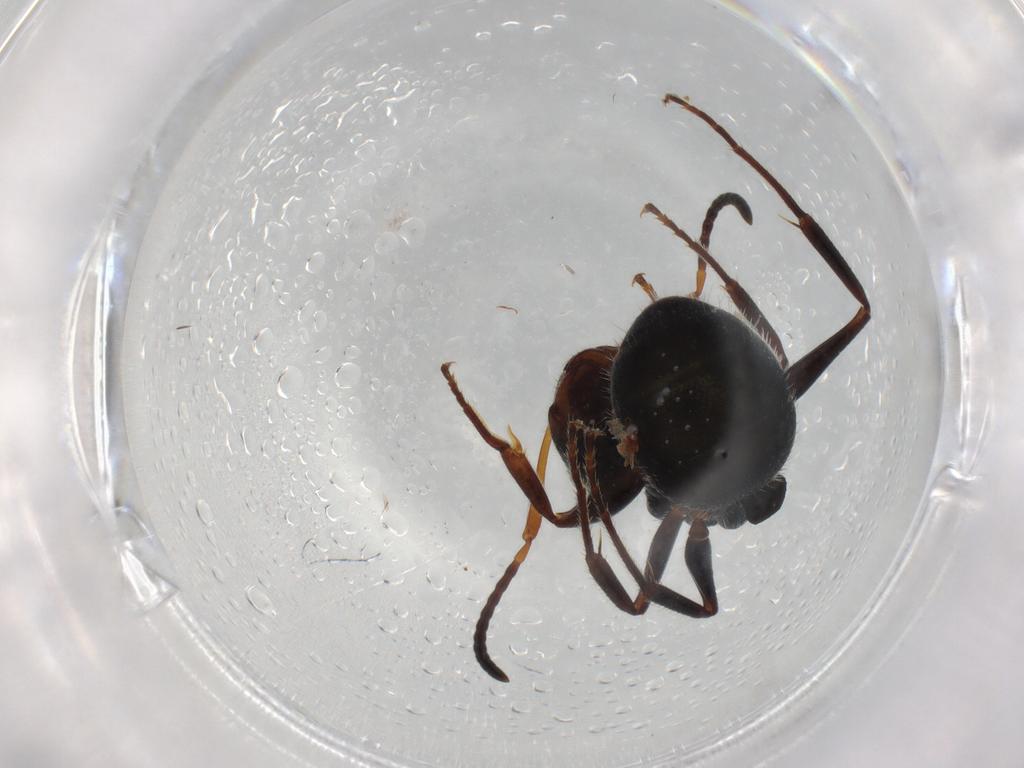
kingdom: Animalia
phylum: Arthropoda
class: Insecta
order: Hymenoptera
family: Formicidae
